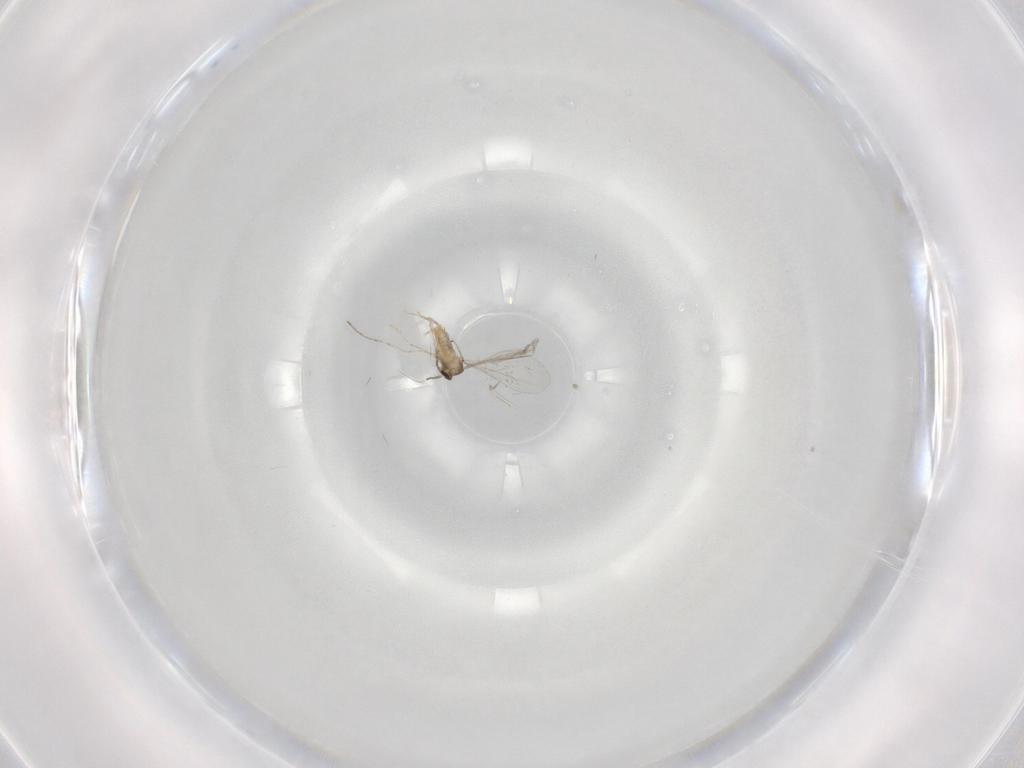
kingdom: Animalia
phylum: Arthropoda
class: Insecta
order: Diptera
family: Cecidomyiidae
